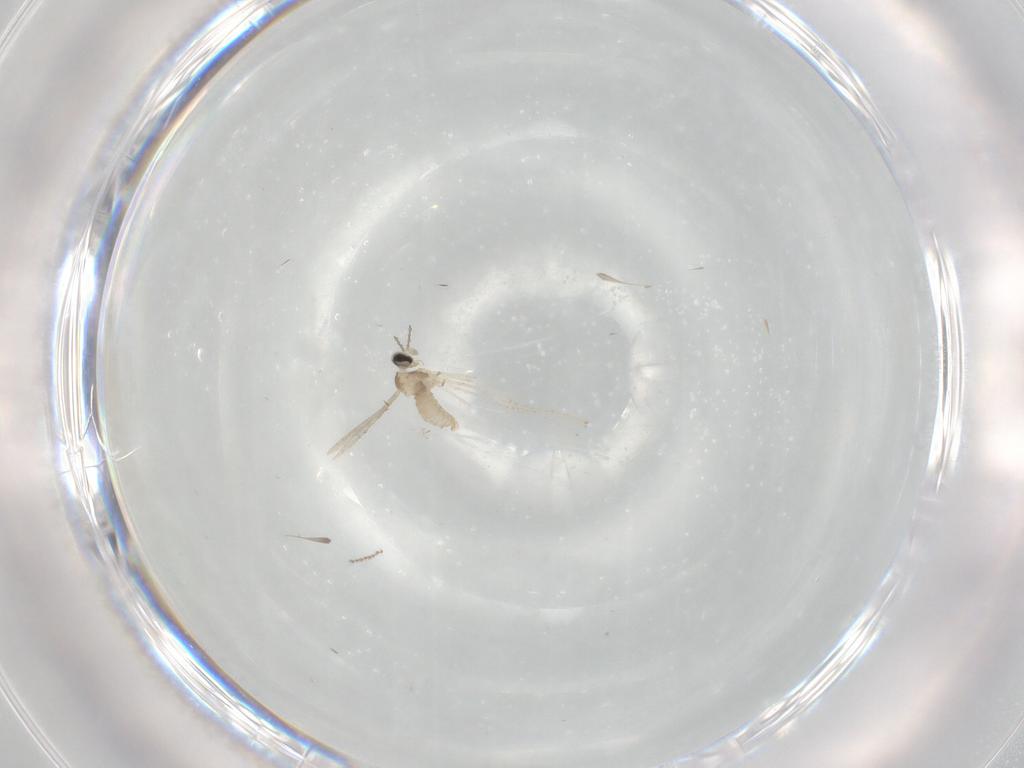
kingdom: Animalia
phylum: Arthropoda
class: Insecta
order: Diptera
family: Cecidomyiidae
